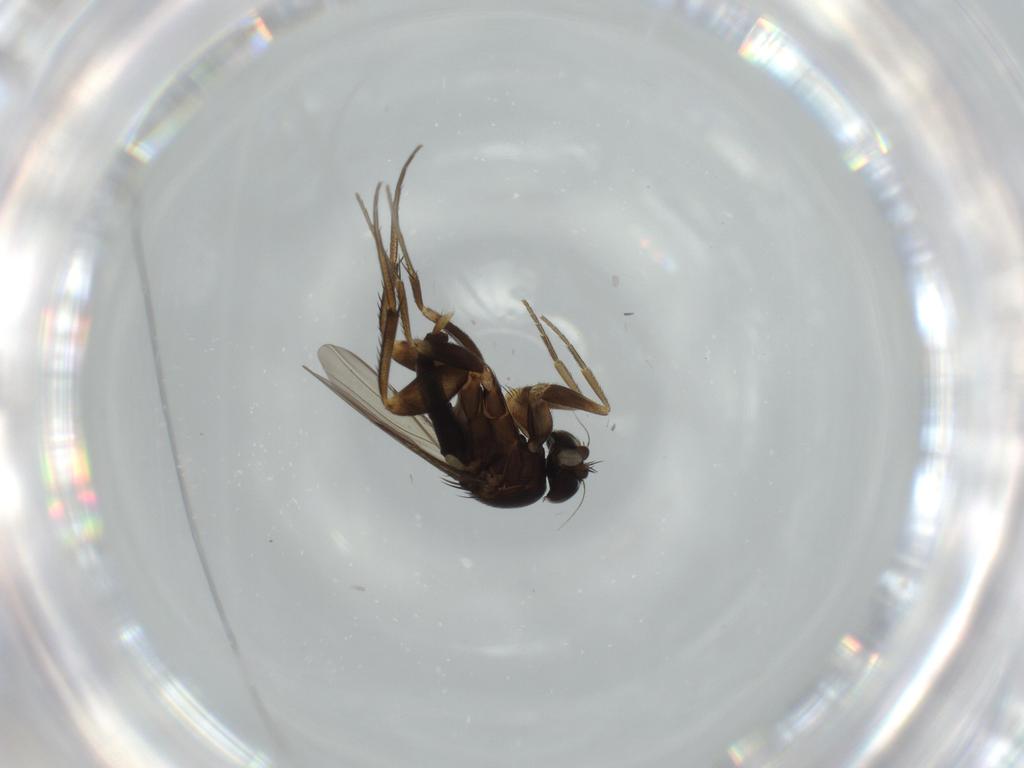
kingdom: Animalia
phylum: Arthropoda
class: Insecta
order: Diptera
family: Phoridae
